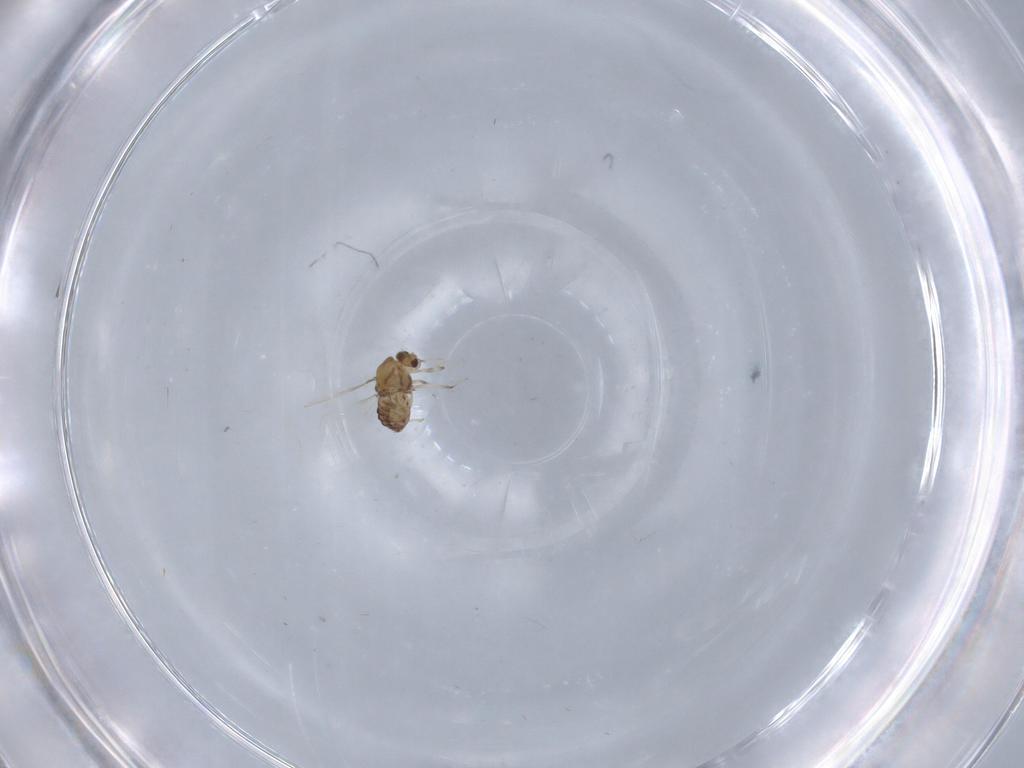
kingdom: Animalia
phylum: Arthropoda
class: Insecta
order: Diptera
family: Chironomidae
